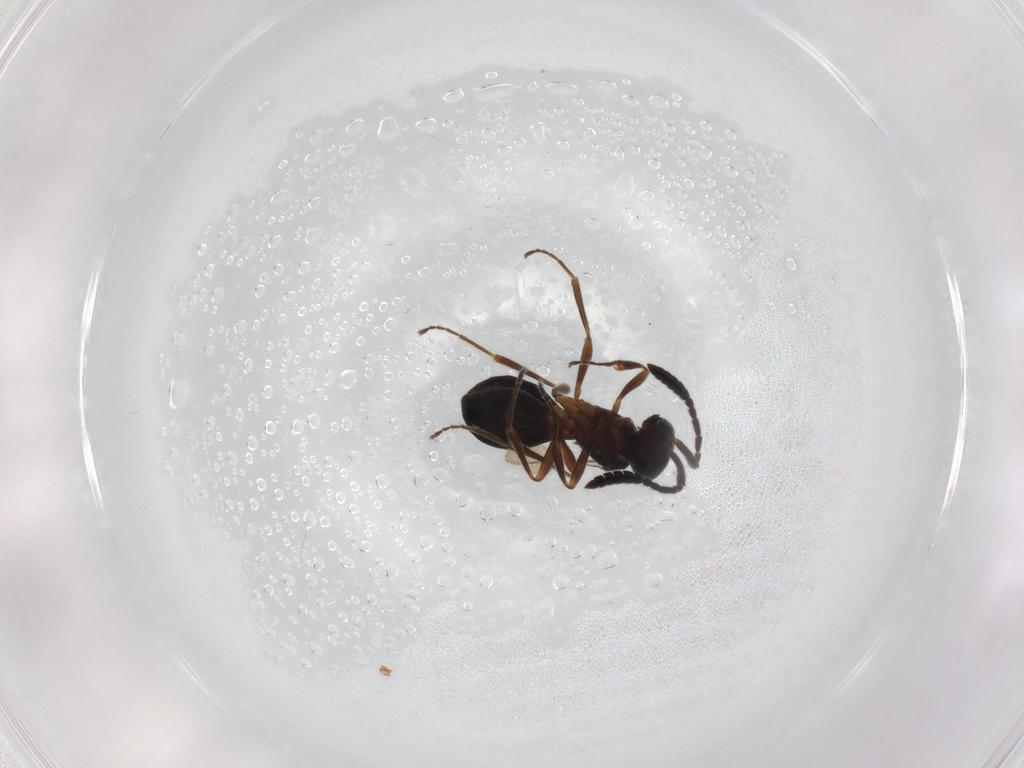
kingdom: Animalia
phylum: Arthropoda
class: Insecta
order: Hymenoptera
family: Scelionidae
